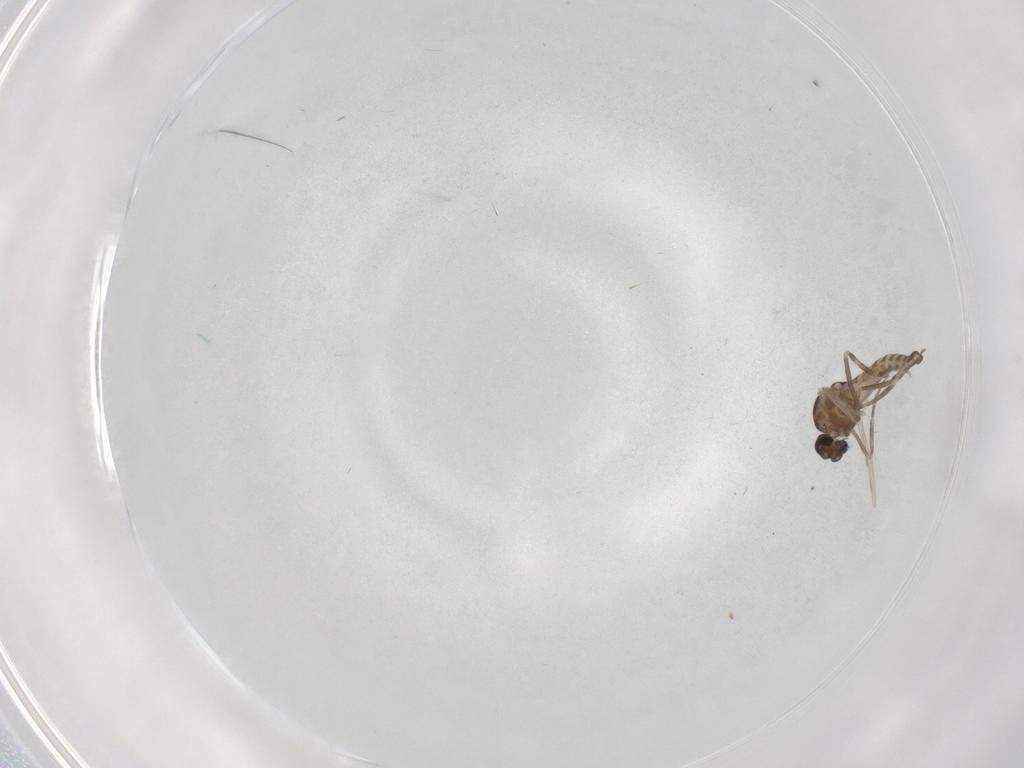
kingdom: Animalia
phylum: Arthropoda
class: Insecta
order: Diptera
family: Ceratopogonidae
